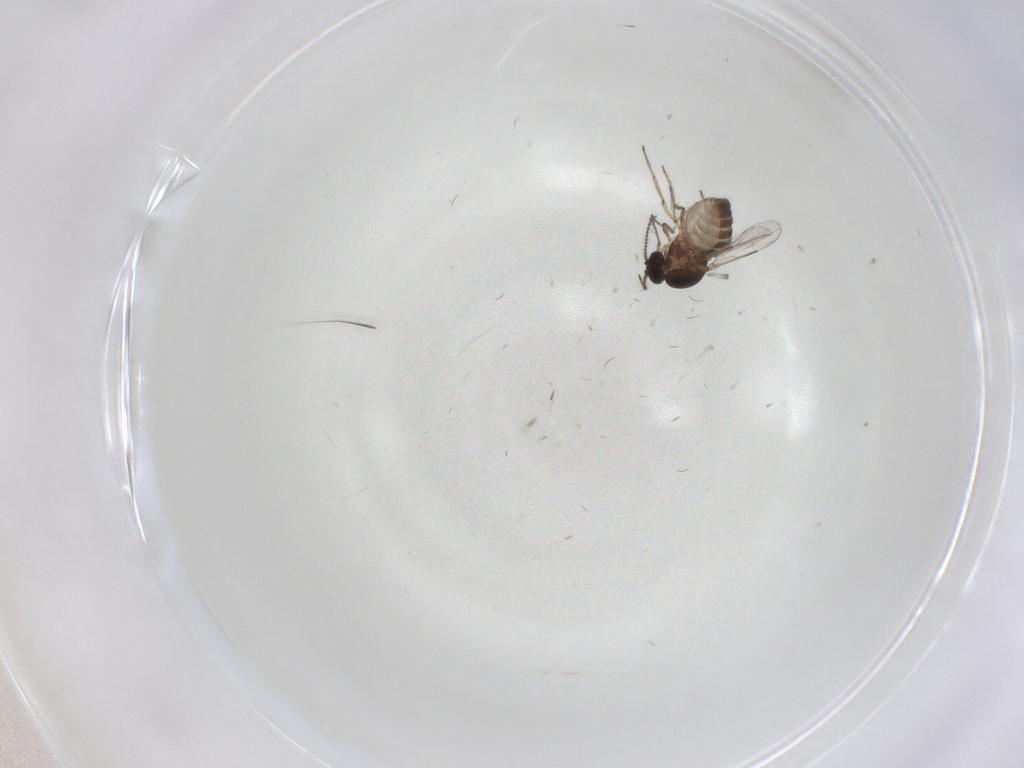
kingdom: Animalia
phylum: Arthropoda
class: Insecta
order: Diptera
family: Ceratopogonidae
